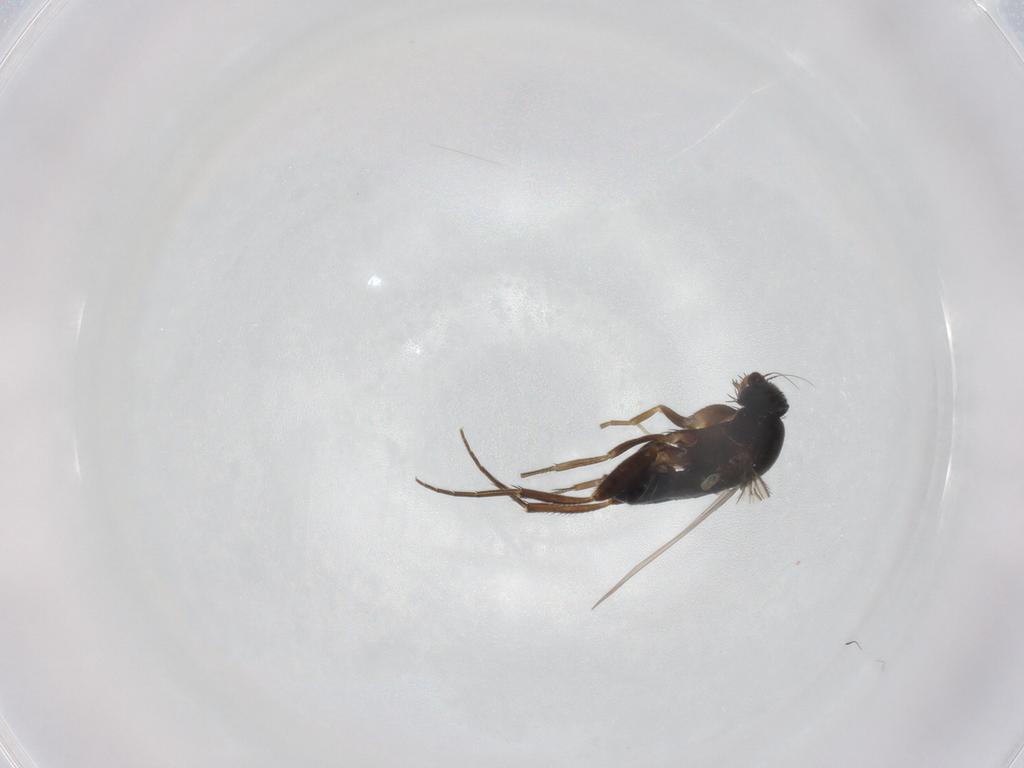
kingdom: Animalia
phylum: Arthropoda
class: Insecta
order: Diptera
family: Phoridae
